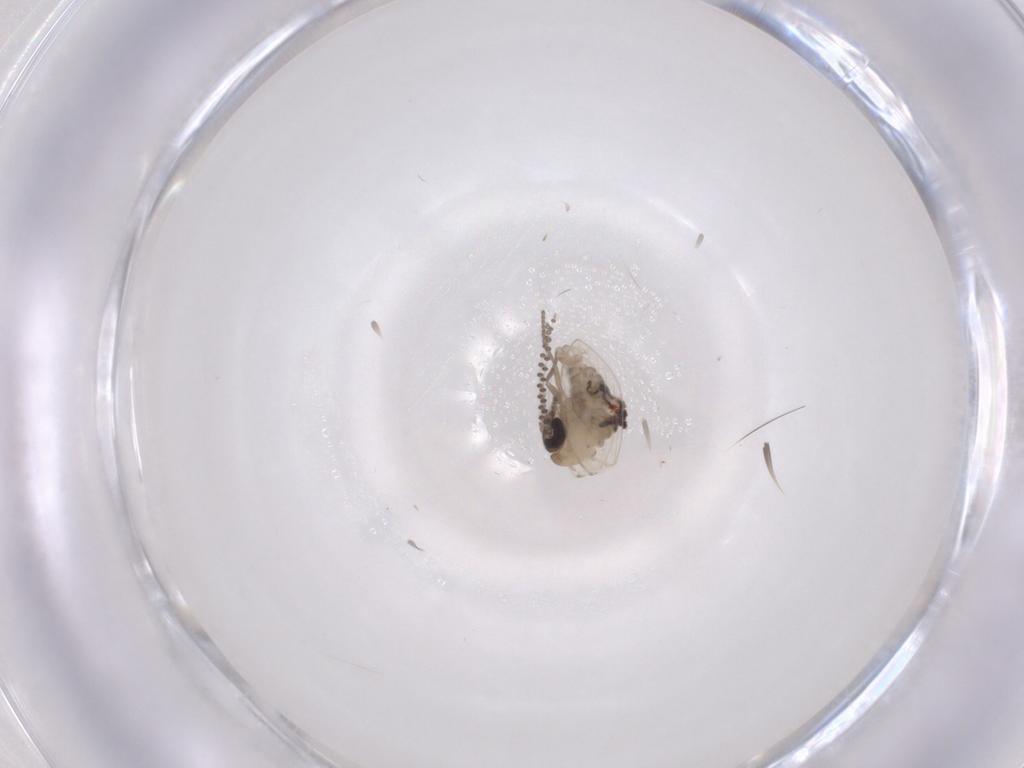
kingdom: Animalia
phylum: Arthropoda
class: Insecta
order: Diptera
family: Psychodidae
